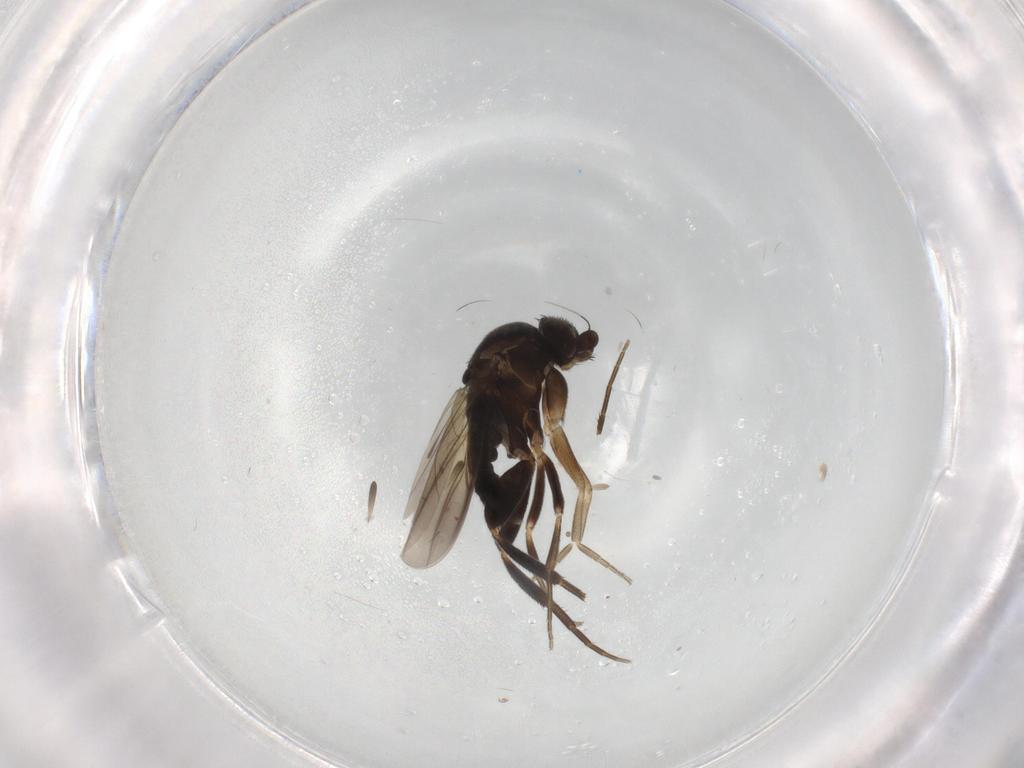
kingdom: Animalia
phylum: Arthropoda
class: Insecta
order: Diptera
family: Cecidomyiidae
